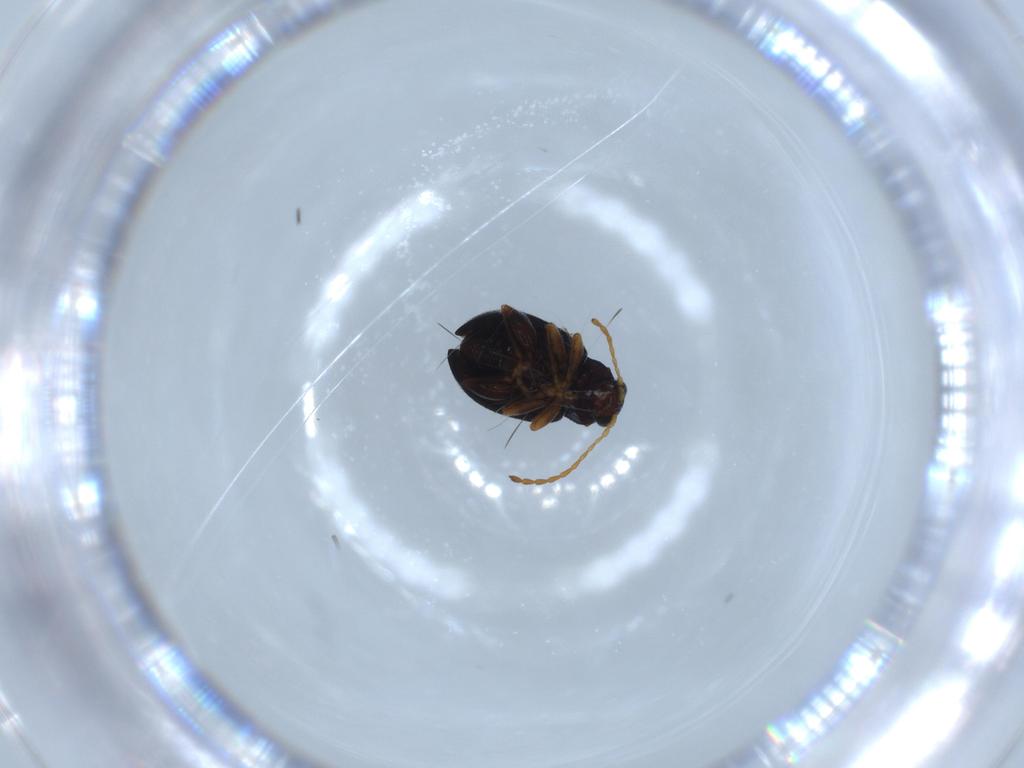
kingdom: Animalia
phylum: Arthropoda
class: Insecta
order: Coleoptera
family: Chrysomelidae
